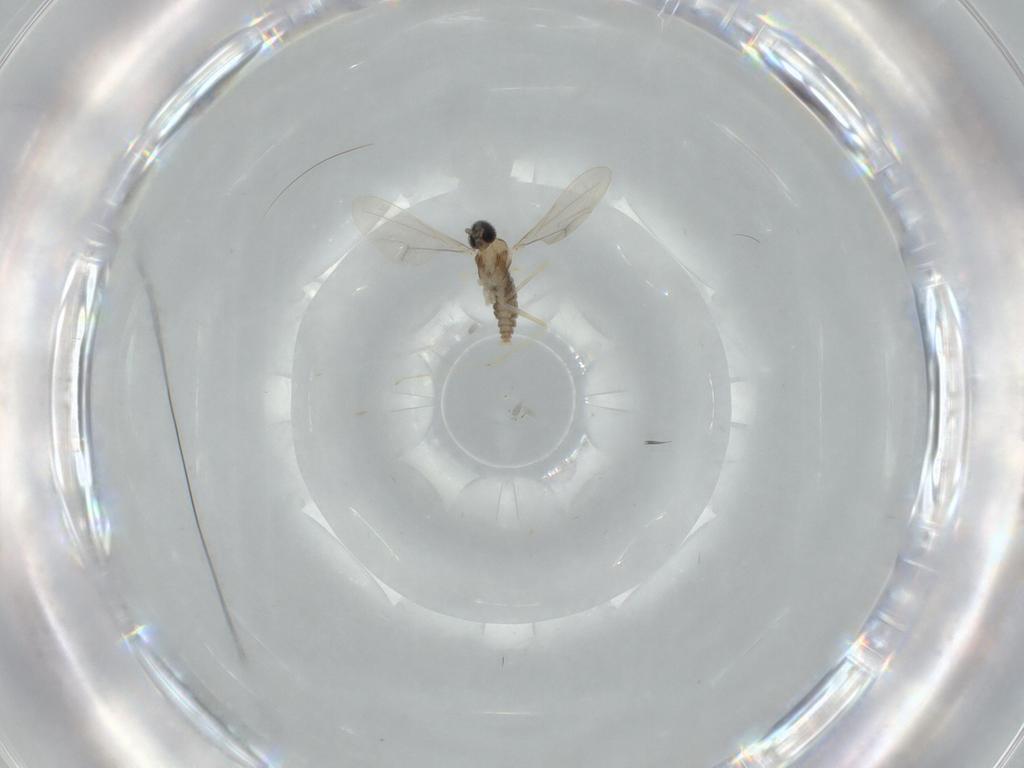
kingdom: Animalia
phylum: Arthropoda
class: Insecta
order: Diptera
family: Cecidomyiidae
